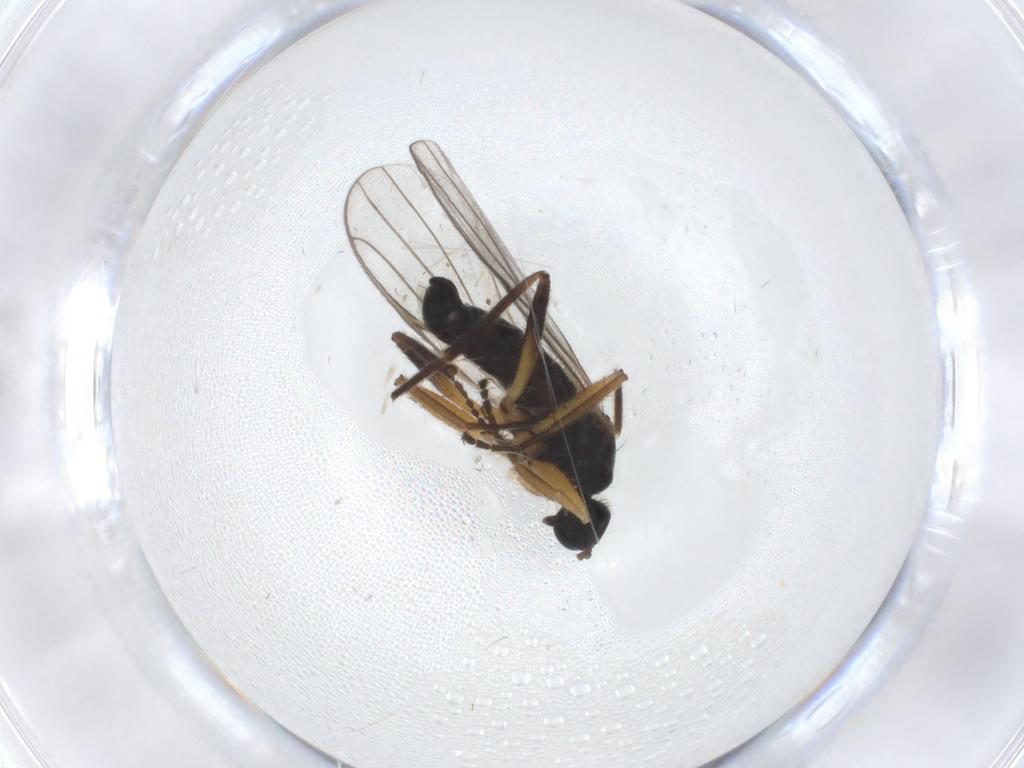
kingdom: Animalia
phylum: Arthropoda
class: Insecta
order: Diptera
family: Hybotidae
